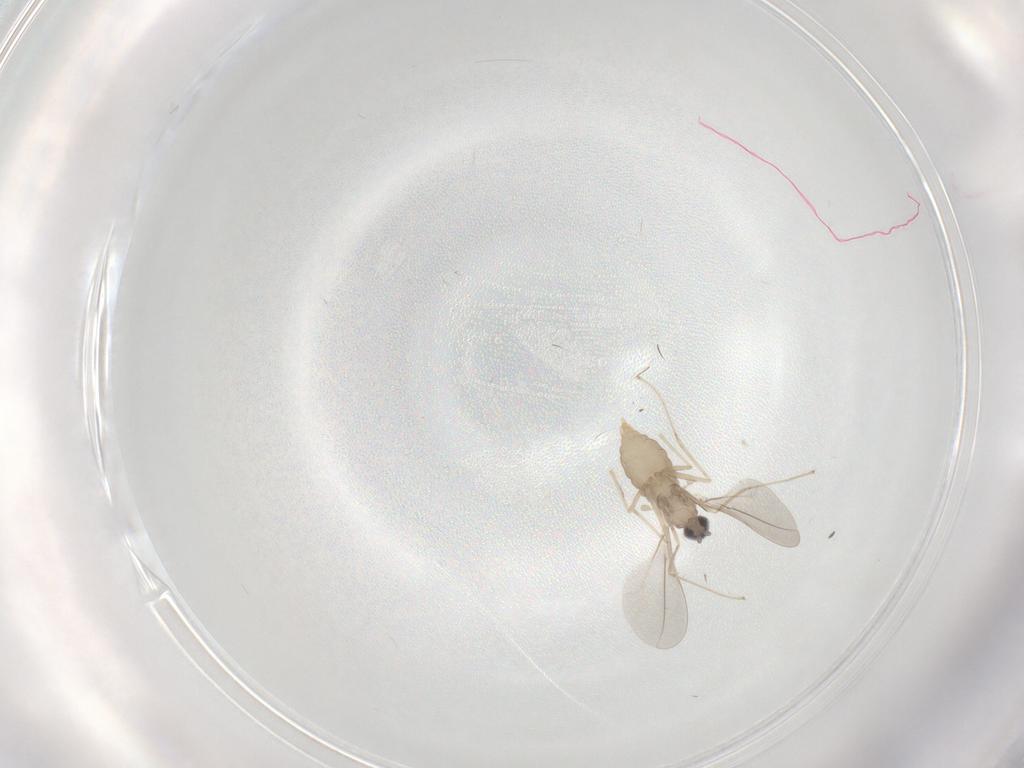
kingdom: Animalia
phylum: Arthropoda
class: Insecta
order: Diptera
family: Cecidomyiidae
